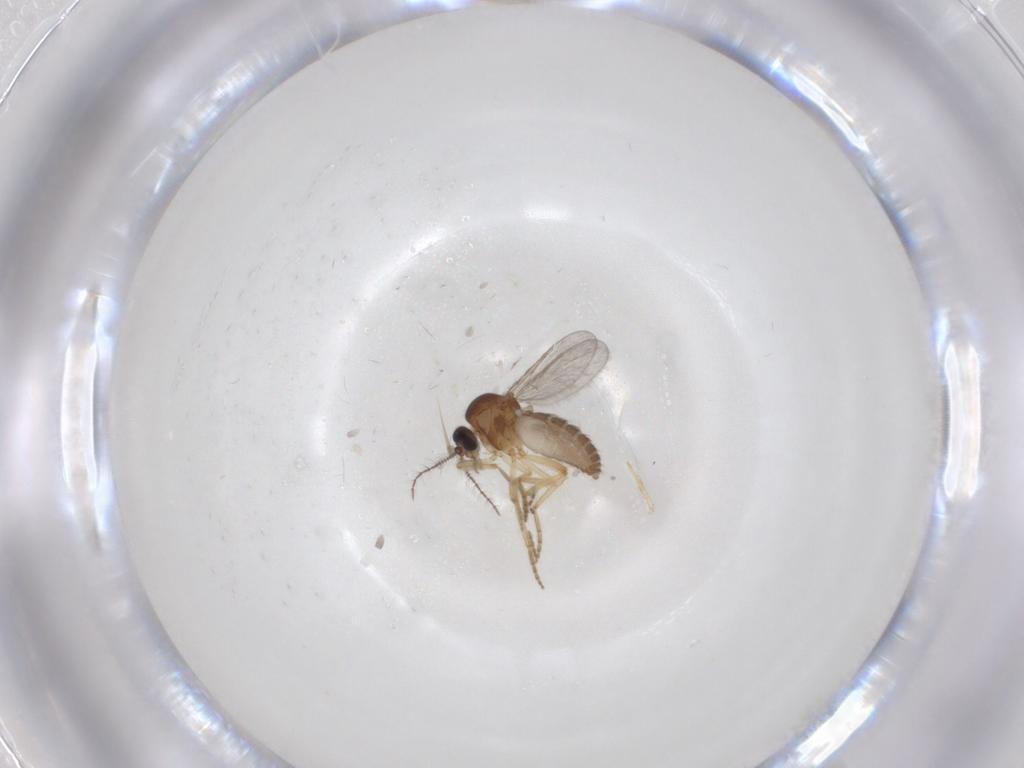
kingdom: Animalia
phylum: Arthropoda
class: Insecta
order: Diptera
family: Ceratopogonidae
